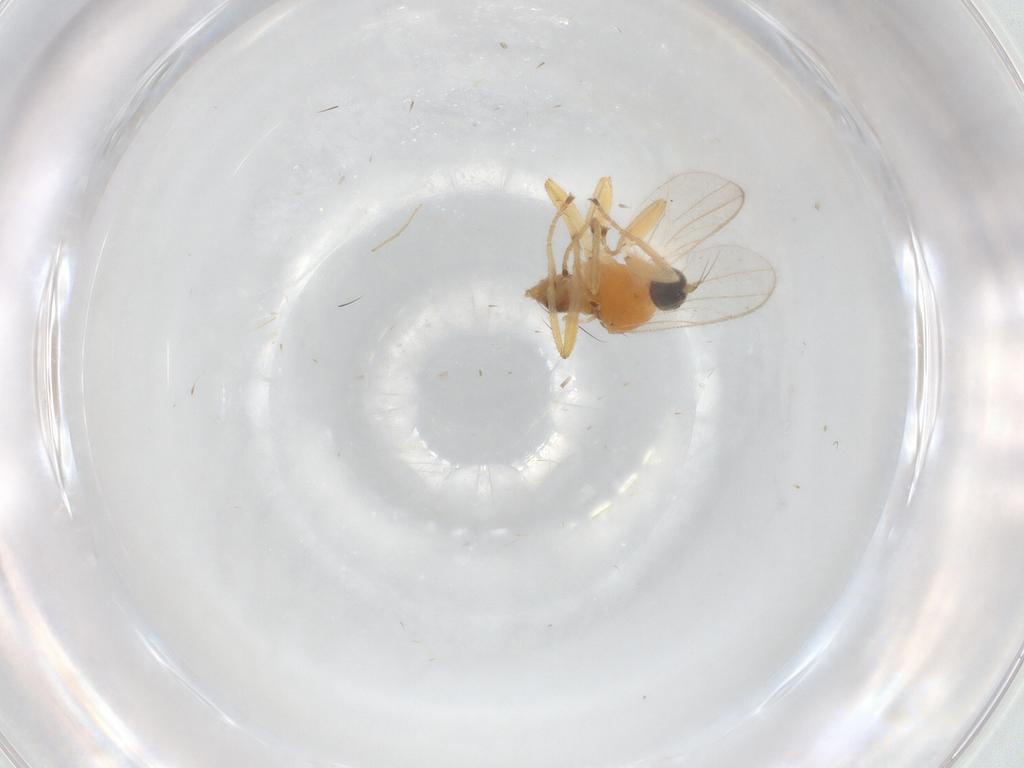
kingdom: Animalia
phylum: Arthropoda
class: Insecta
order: Diptera
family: Hybotidae
